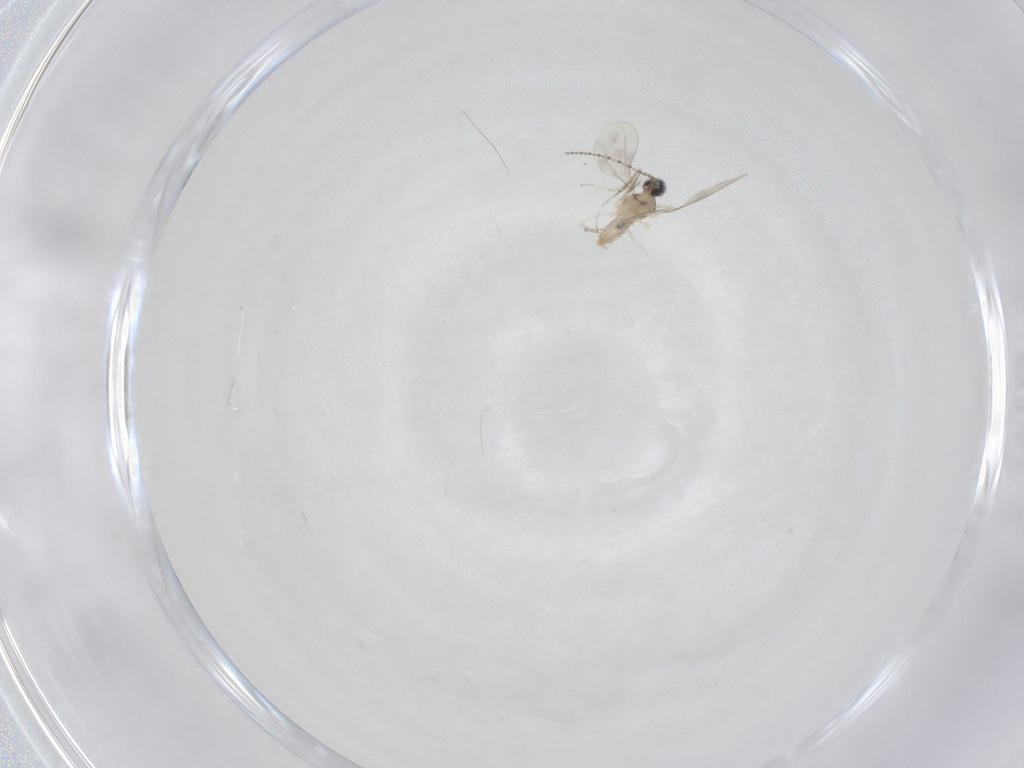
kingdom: Animalia
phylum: Arthropoda
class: Insecta
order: Diptera
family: Cecidomyiidae
